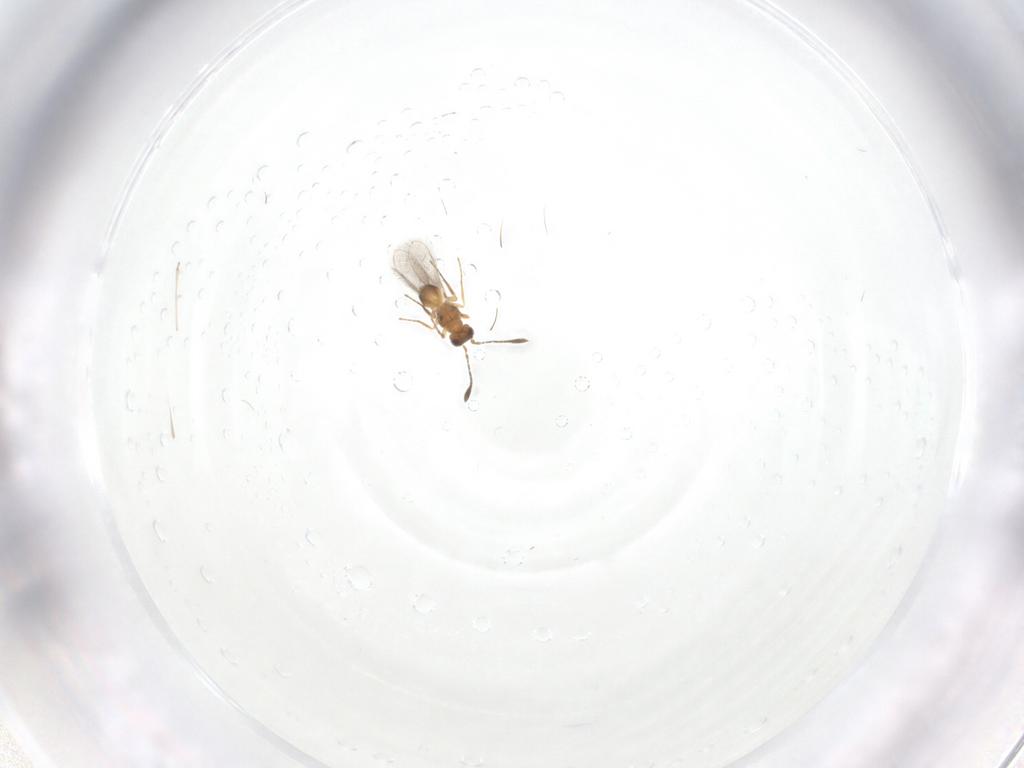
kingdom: Animalia
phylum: Arthropoda
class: Insecta
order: Hymenoptera
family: Mymaridae
